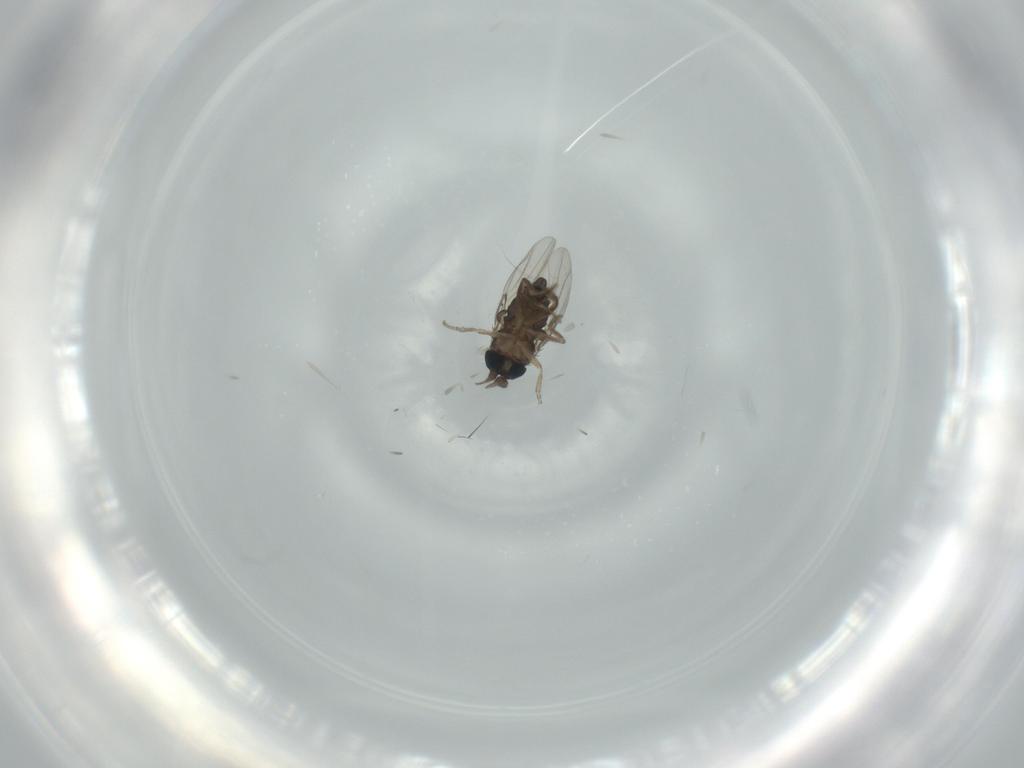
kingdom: Animalia
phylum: Arthropoda
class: Insecta
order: Diptera
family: Phoridae
